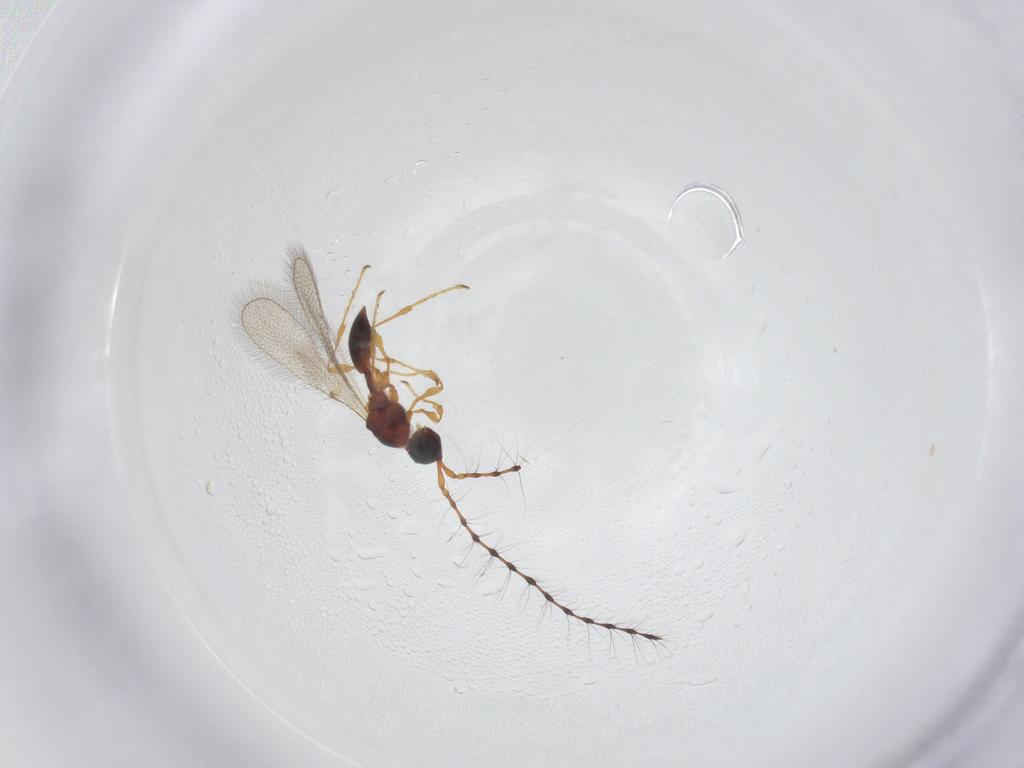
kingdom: Animalia
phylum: Arthropoda
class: Insecta
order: Hymenoptera
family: Diapriidae
